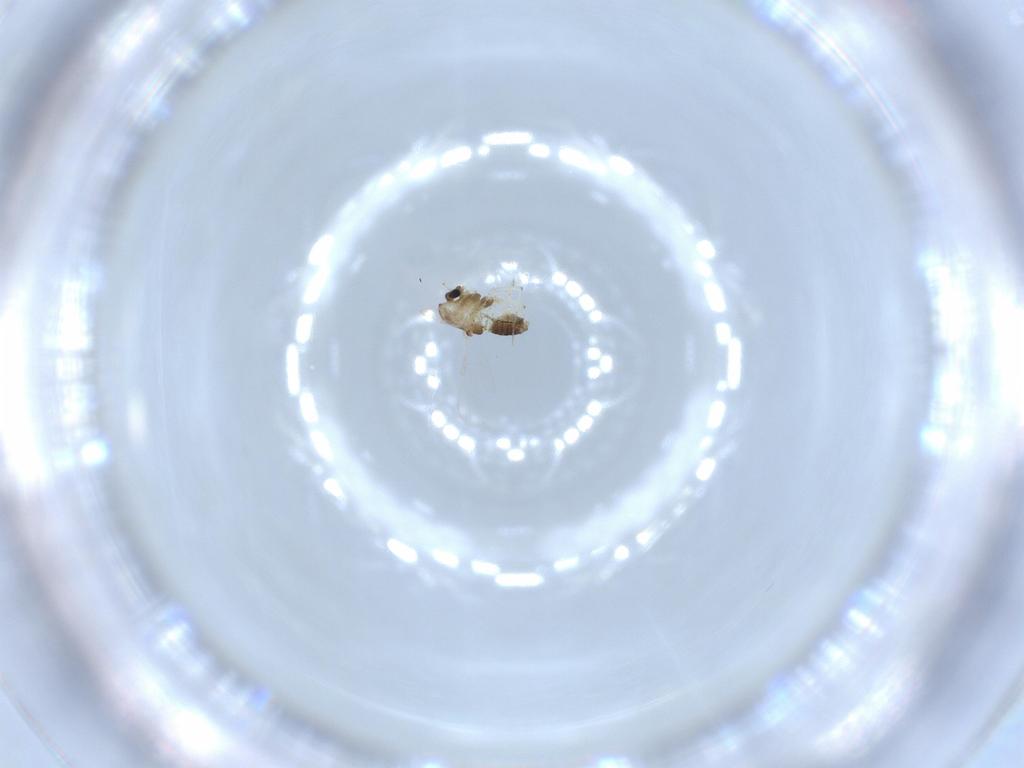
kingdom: Animalia
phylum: Arthropoda
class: Insecta
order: Diptera
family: Chironomidae
